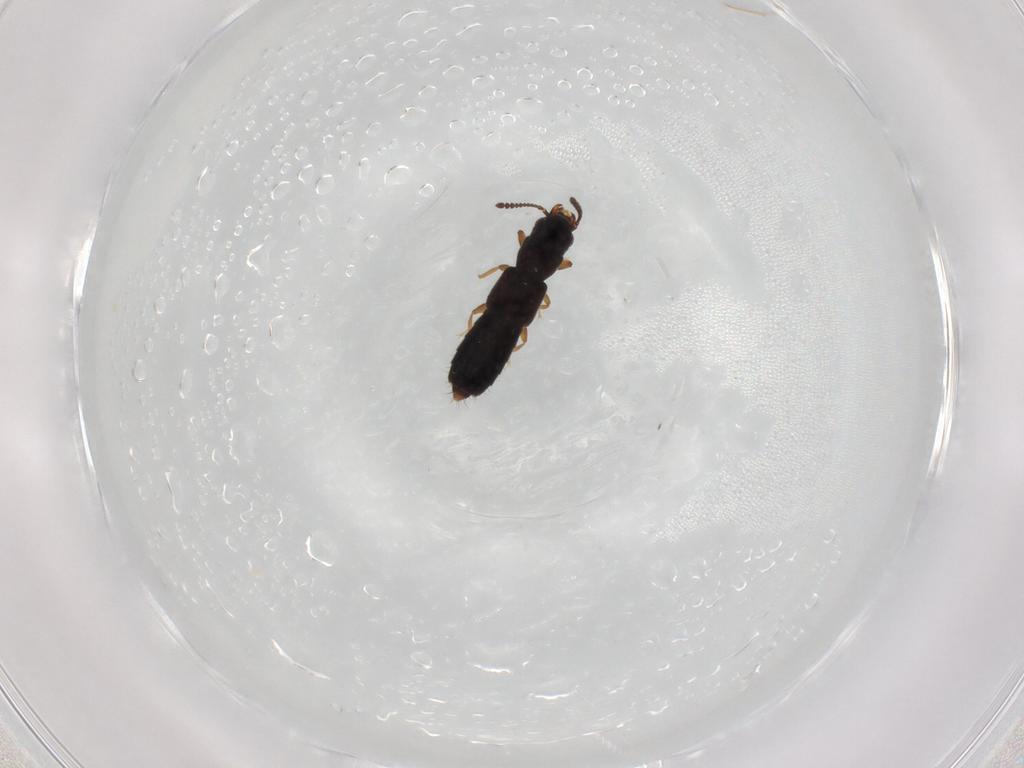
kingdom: Animalia
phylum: Arthropoda
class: Insecta
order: Coleoptera
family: Staphylinidae
